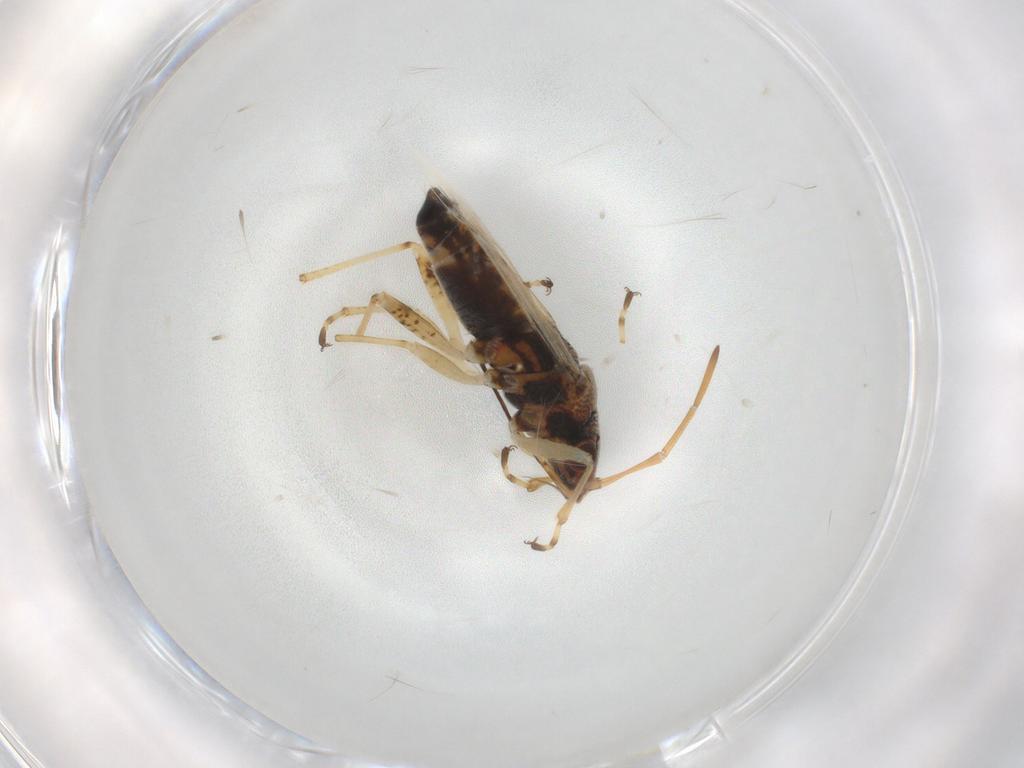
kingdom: Animalia
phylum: Arthropoda
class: Insecta
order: Hemiptera
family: Lygaeidae
